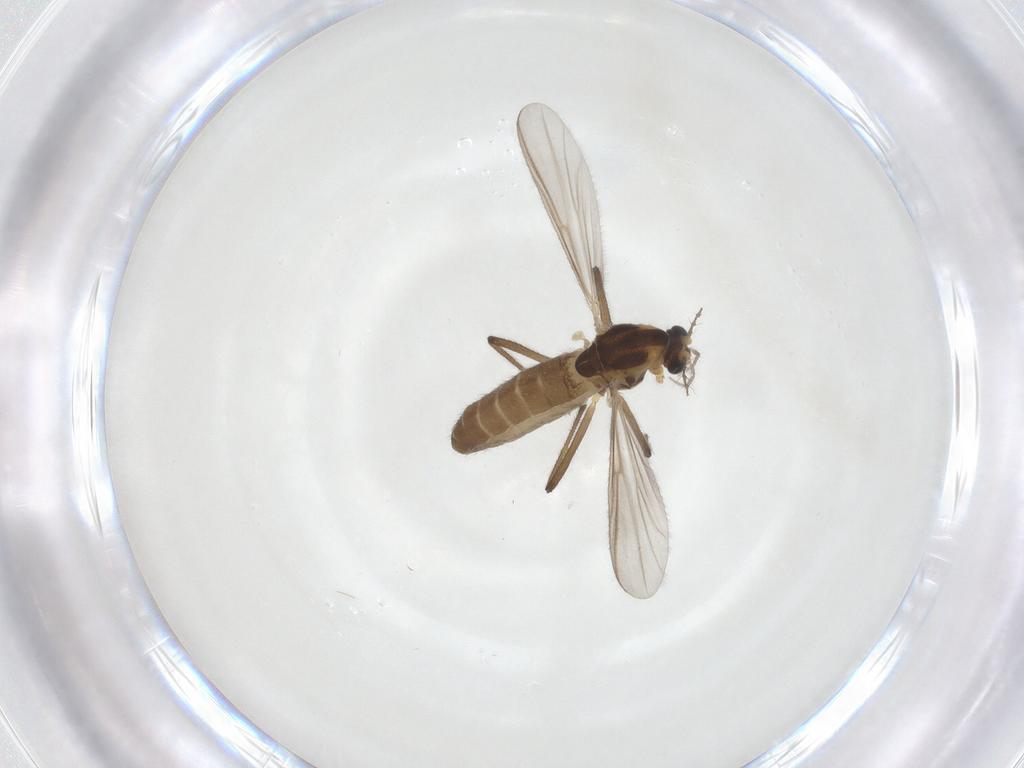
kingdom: Animalia
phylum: Arthropoda
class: Insecta
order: Diptera
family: Chironomidae
